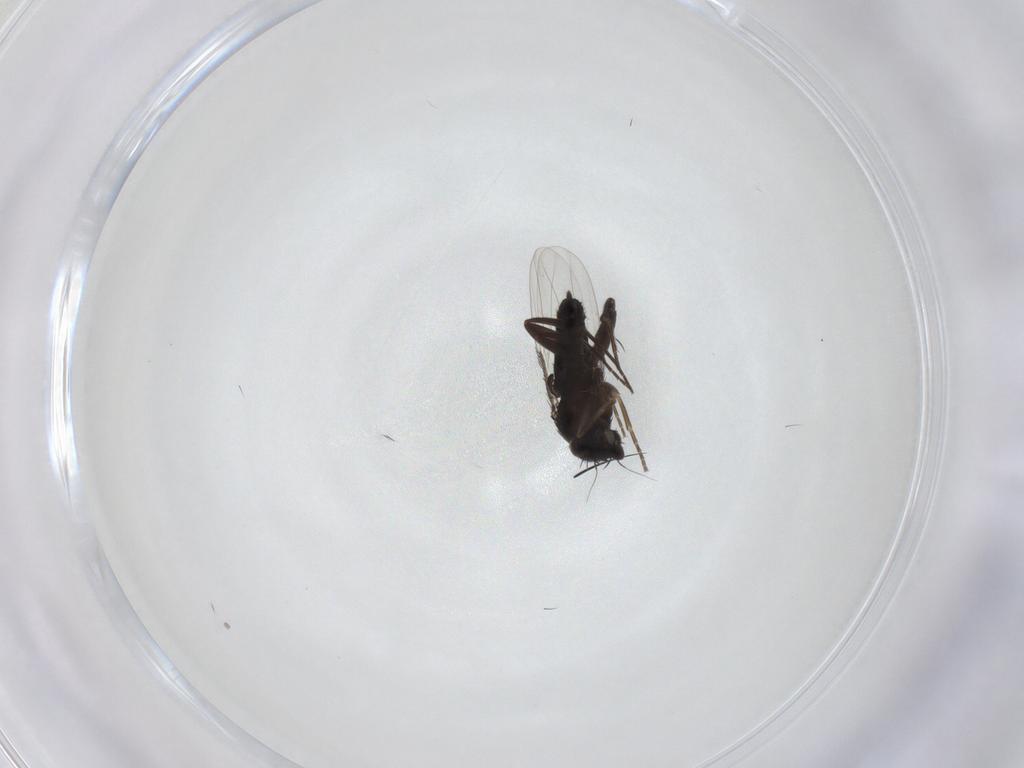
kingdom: Animalia
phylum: Arthropoda
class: Insecta
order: Diptera
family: Phoridae
